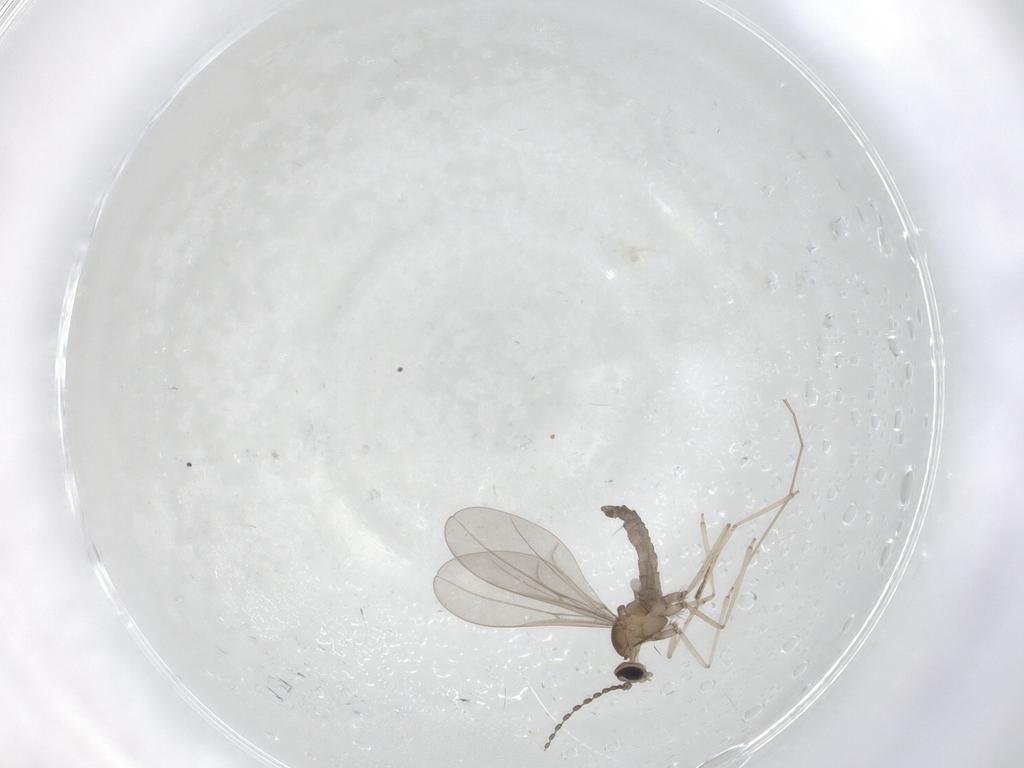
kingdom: Animalia
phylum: Arthropoda
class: Insecta
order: Diptera
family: Cecidomyiidae
